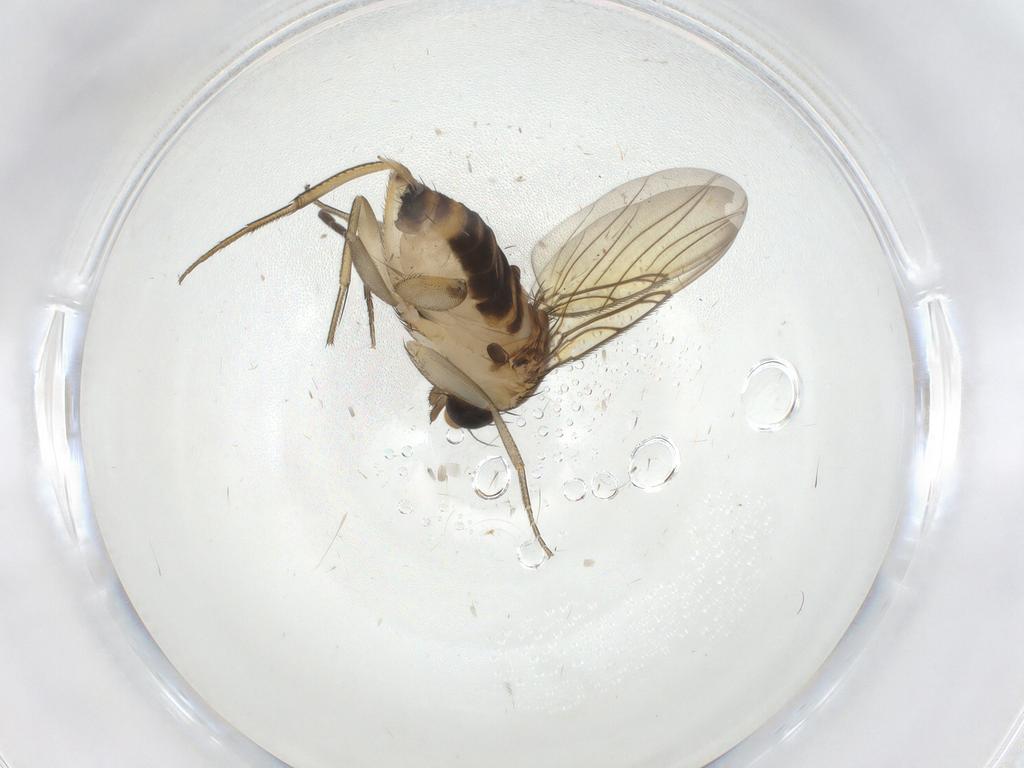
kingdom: Animalia
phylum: Arthropoda
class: Insecta
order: Diptera
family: Phoridae
